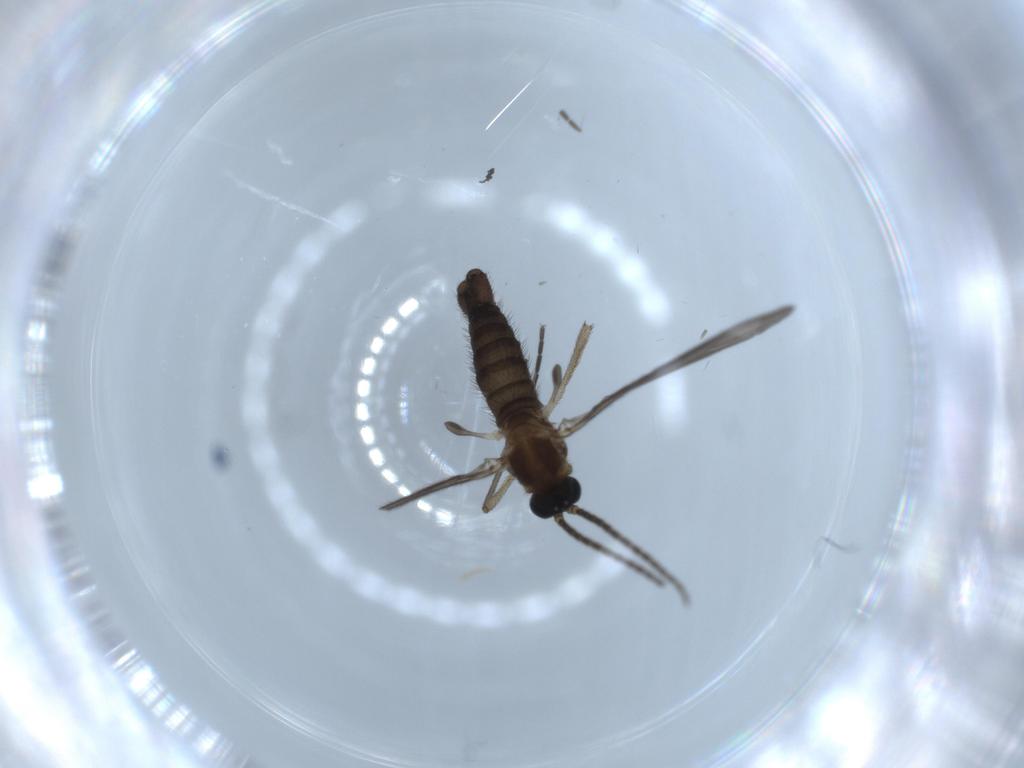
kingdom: Animalia
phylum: Arthropoda
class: Insecta
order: Diptera
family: Sciaridae
